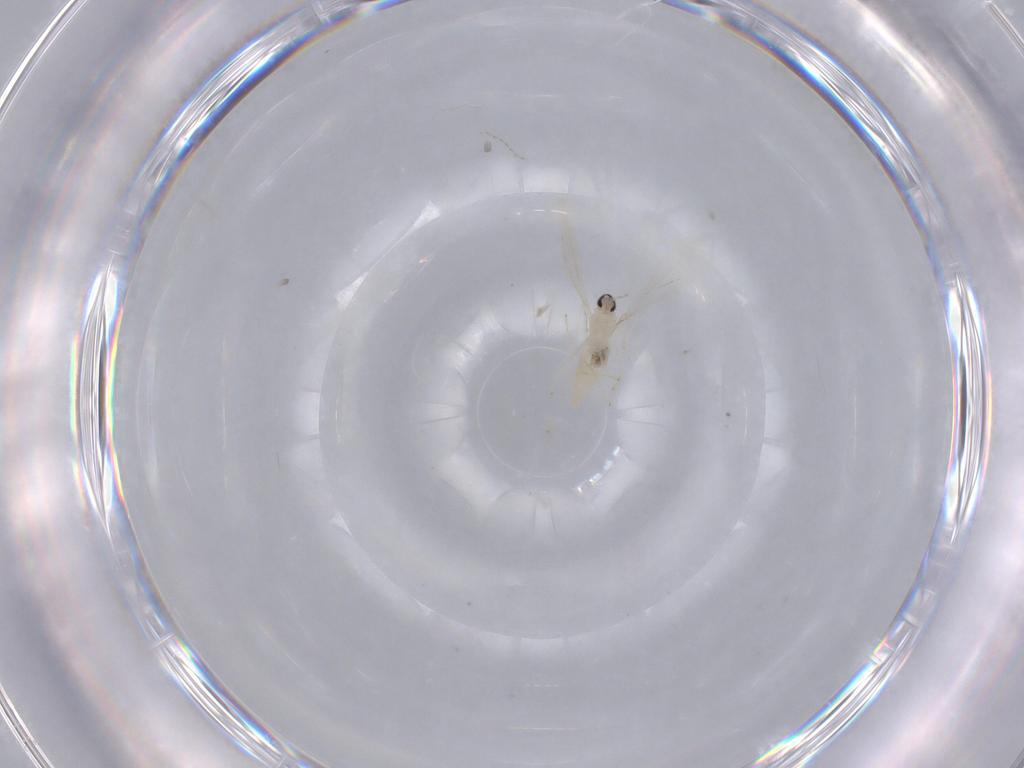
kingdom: Animalia
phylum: Arthropoda
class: Insecta
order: Diptera
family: Cecidomyiidae
